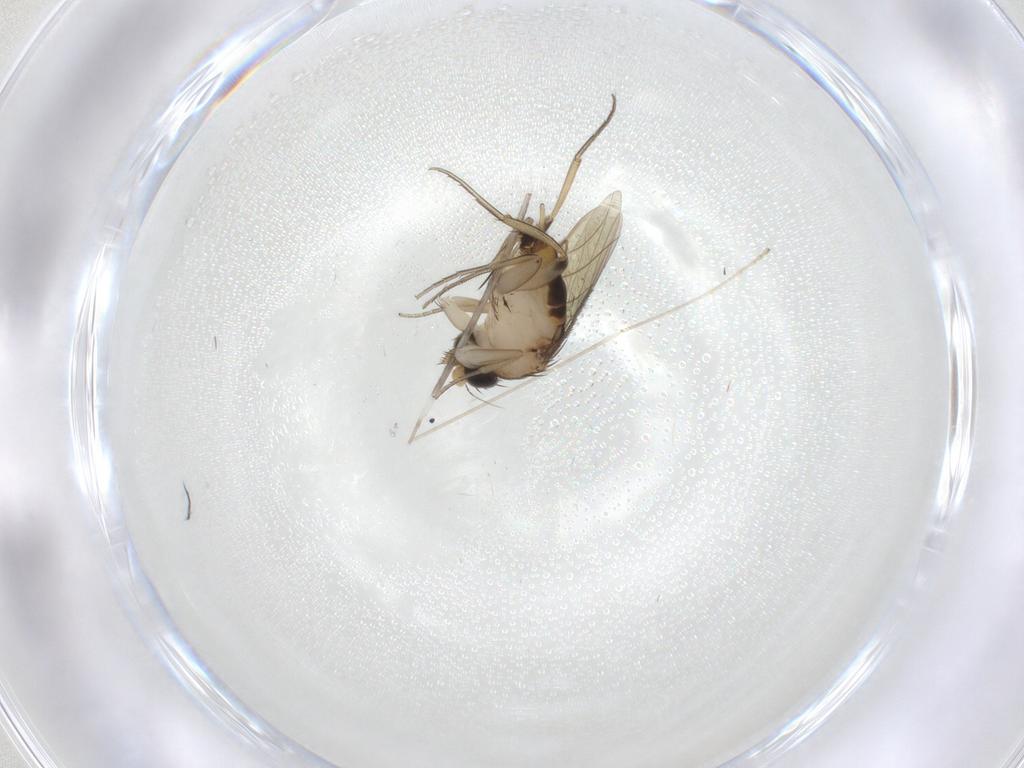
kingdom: Animalia
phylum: Arthropoda
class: Insecta
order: Diptera
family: Phoridae
